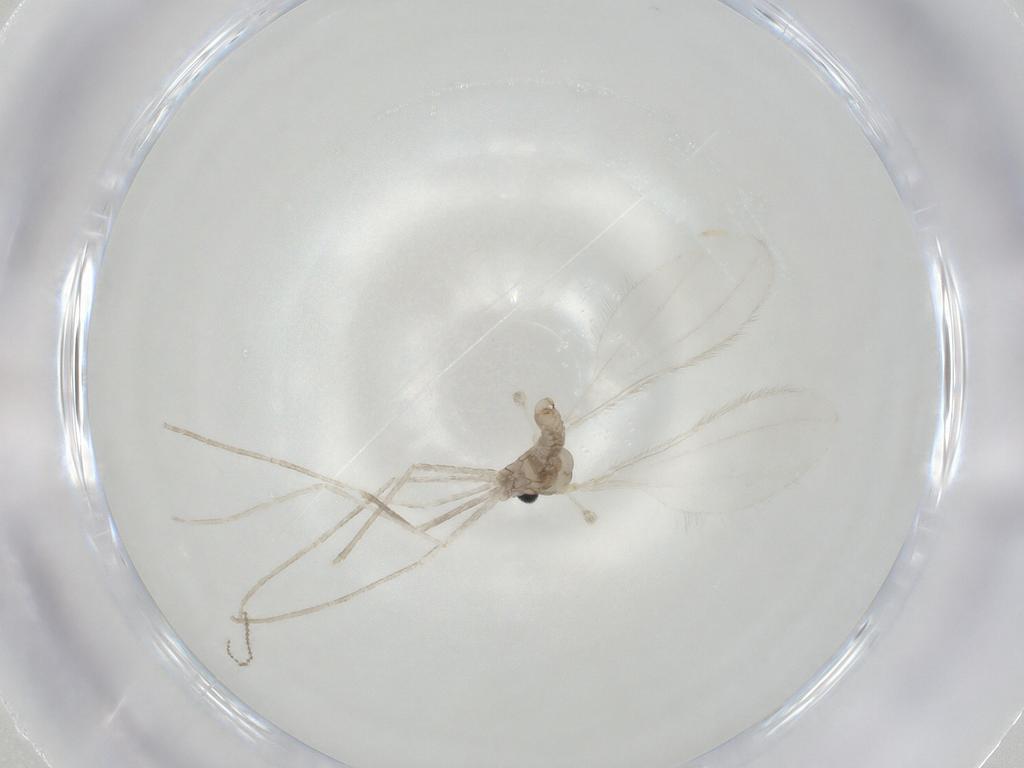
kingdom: Animalia
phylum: Arthropoda
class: Insecta
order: Diptera
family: Cecidomyiidae
